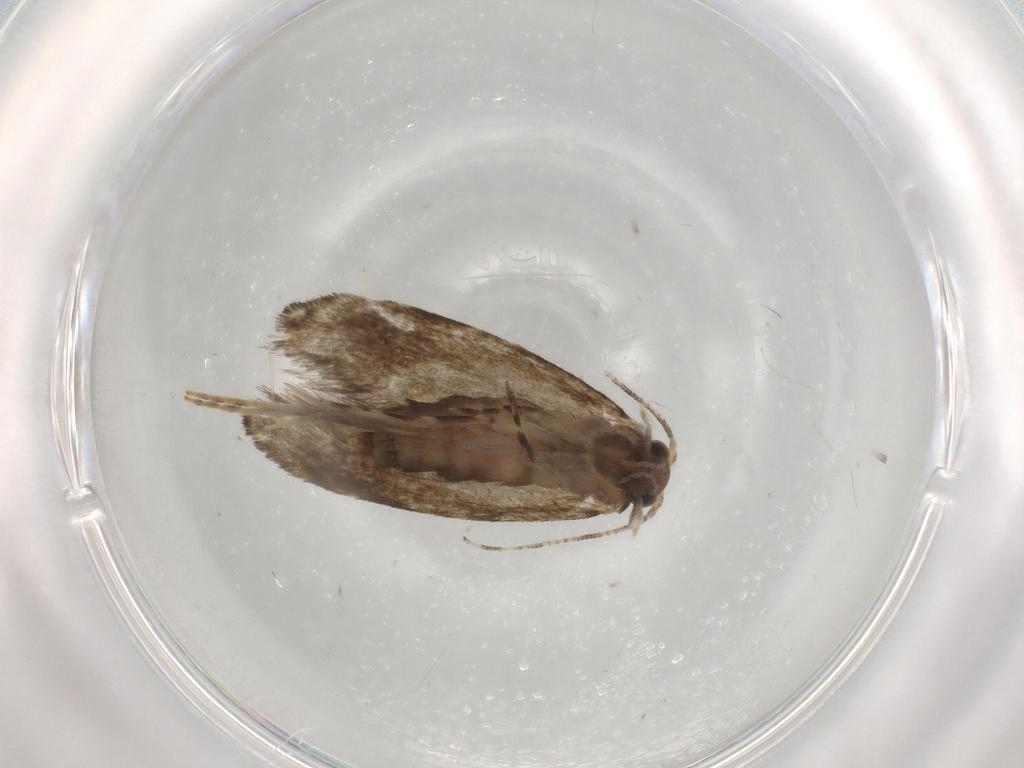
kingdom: Animalia
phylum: Arthropoda
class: Insecta
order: Lepidoptera
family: Tineidae
